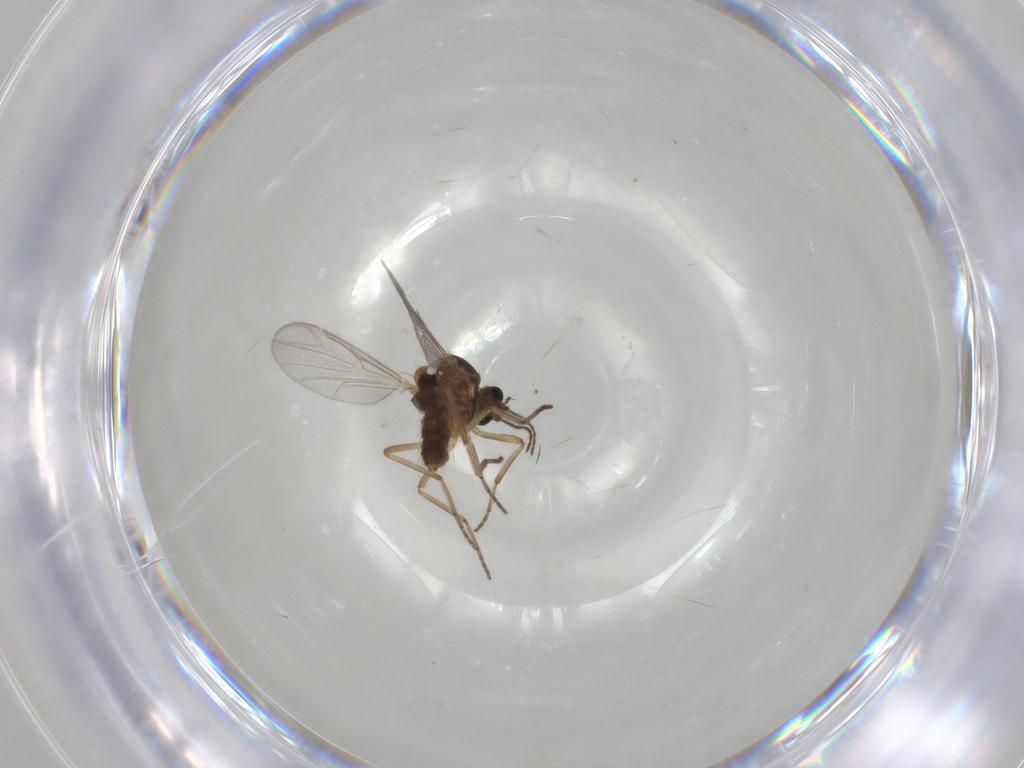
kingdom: Animalia
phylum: Arthropoda
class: Insecta
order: Diptera
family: Ceratopogonidae
